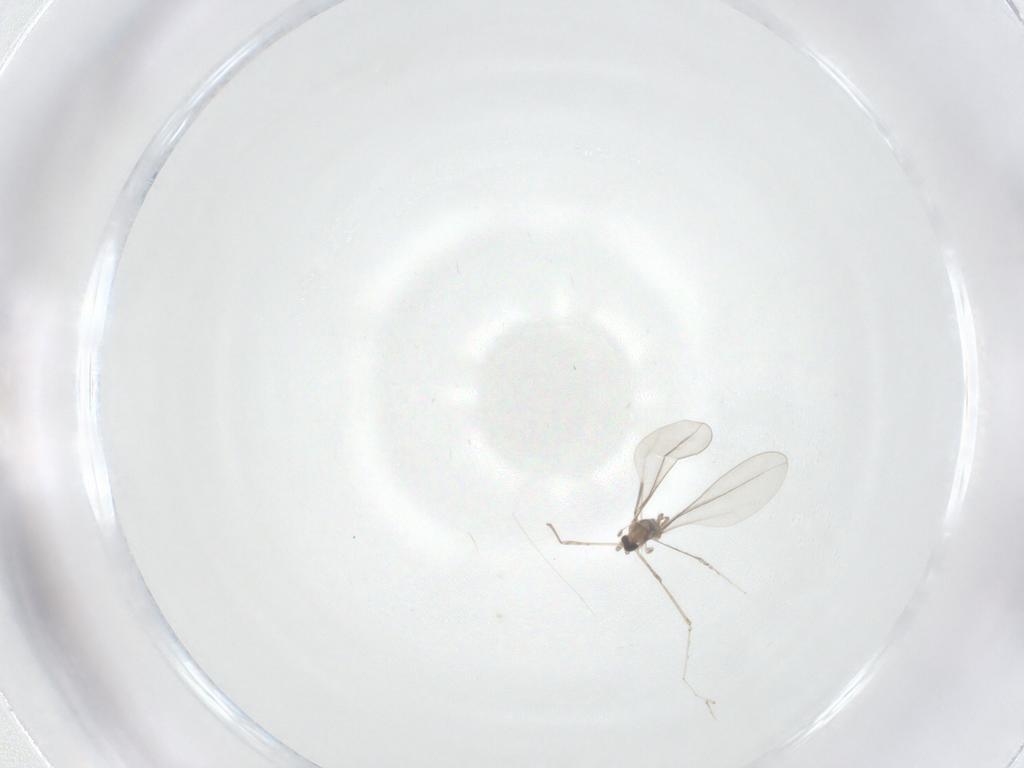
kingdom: Animalia
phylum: Arthropoda
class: Insecta
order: Diptera
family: Cecidomyiidae
